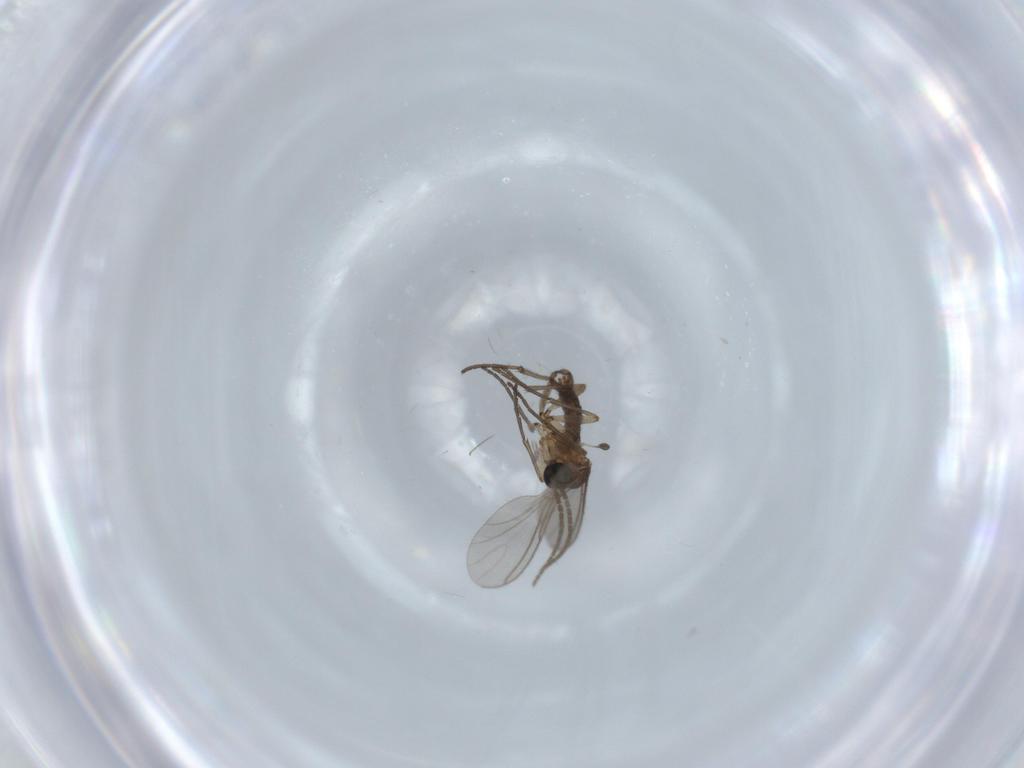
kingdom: Animalia
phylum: Arthropoda
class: Insecta
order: Diptera
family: Sciaridae
